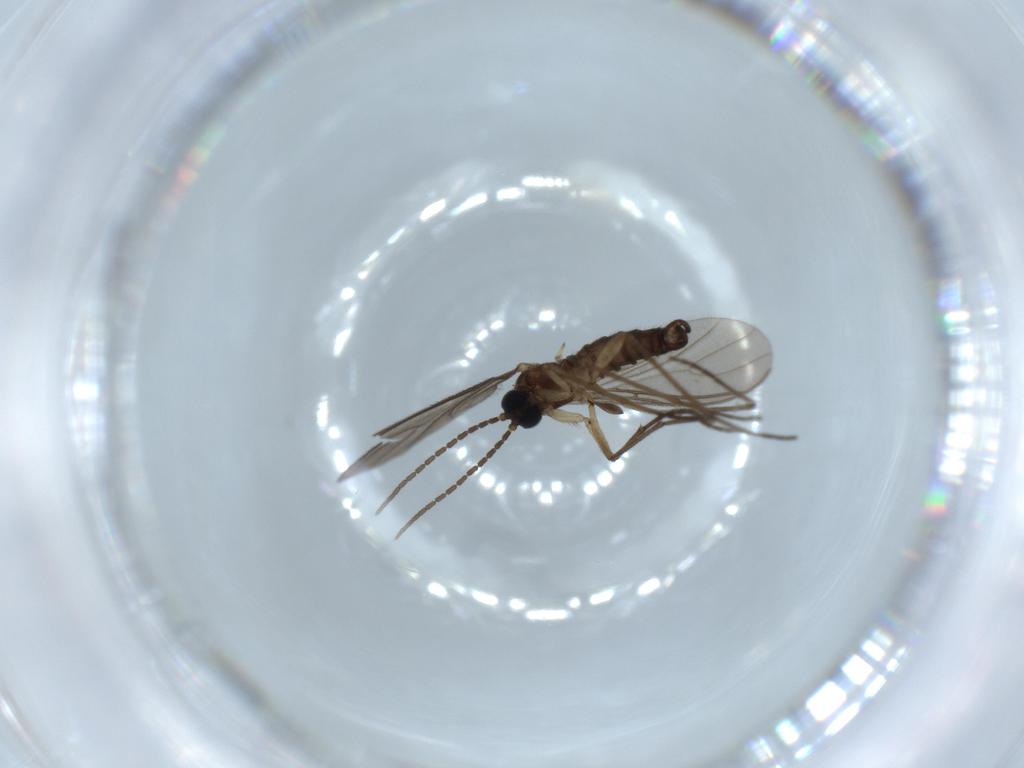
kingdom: Animalia
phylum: Arthropoda
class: Insecta
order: Diptera
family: Sciaridae
